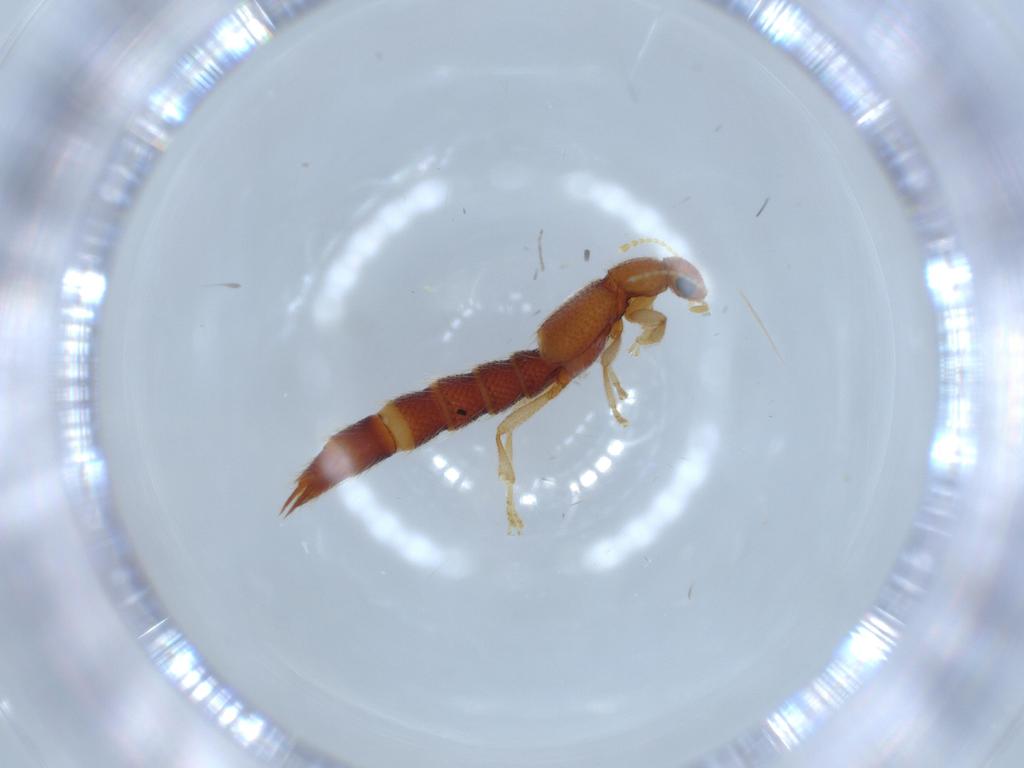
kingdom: Animalia
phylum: Arthropoda
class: Insecta
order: Coleoptera
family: Staphylinidae
